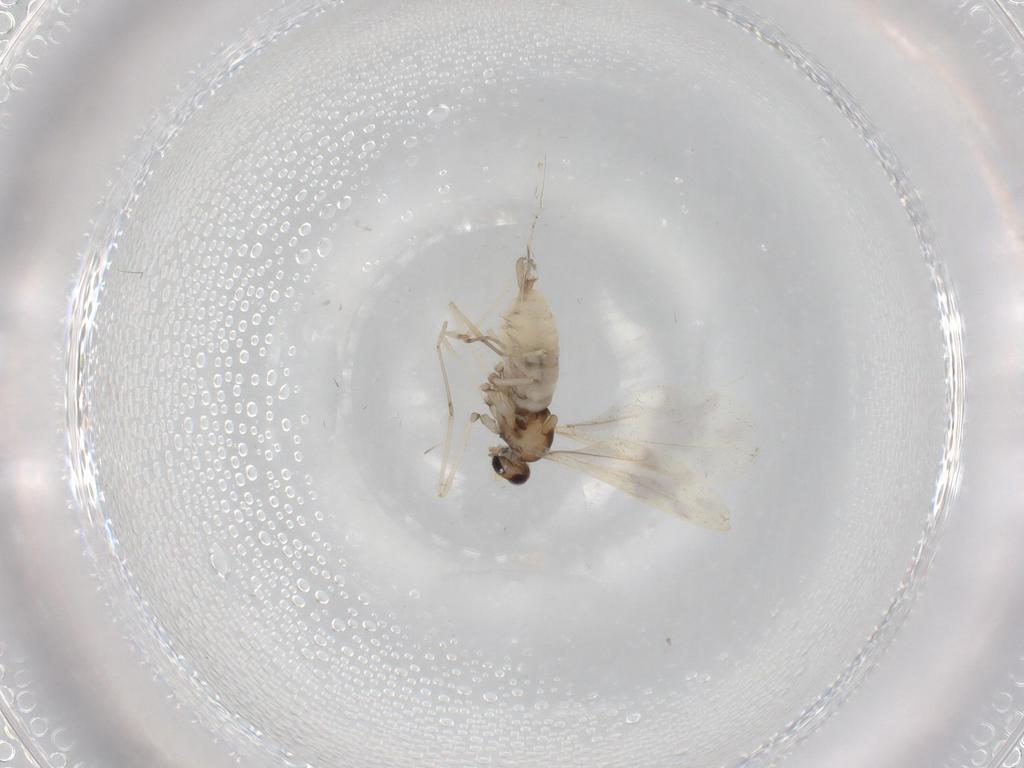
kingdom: Animalia
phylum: Arthropoda
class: Insecta
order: Diptera
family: Cecidomyiidae
